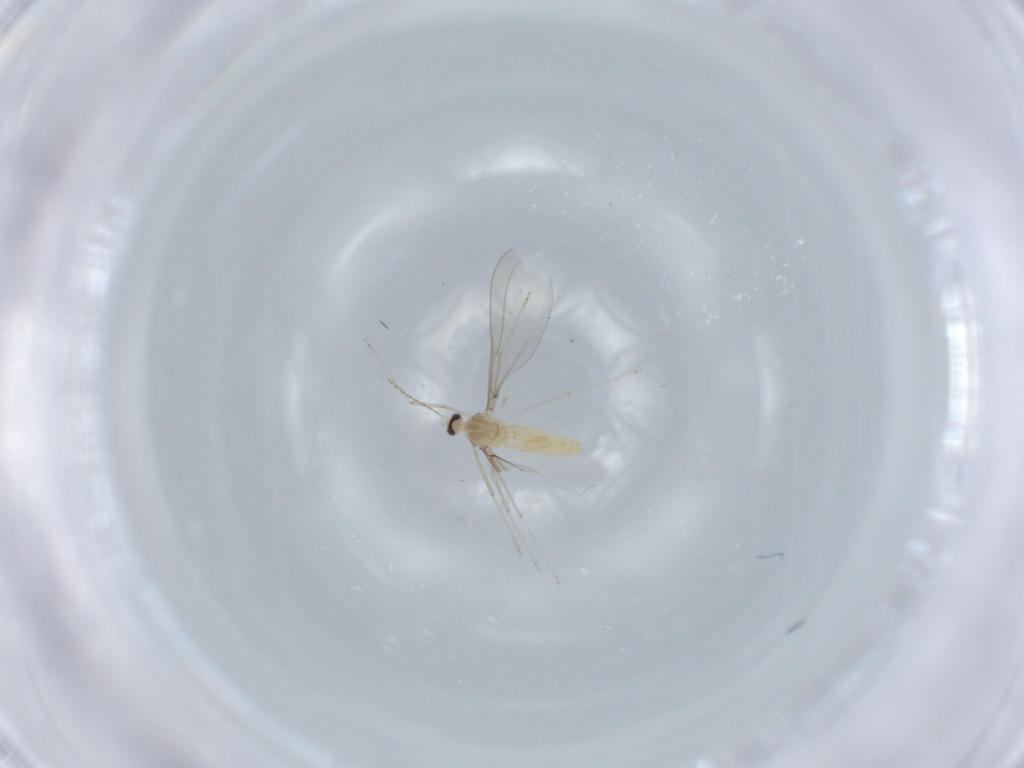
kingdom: Animalia
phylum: Arthropoda
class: Insecta
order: Diptera
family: Cecidomyiidae
